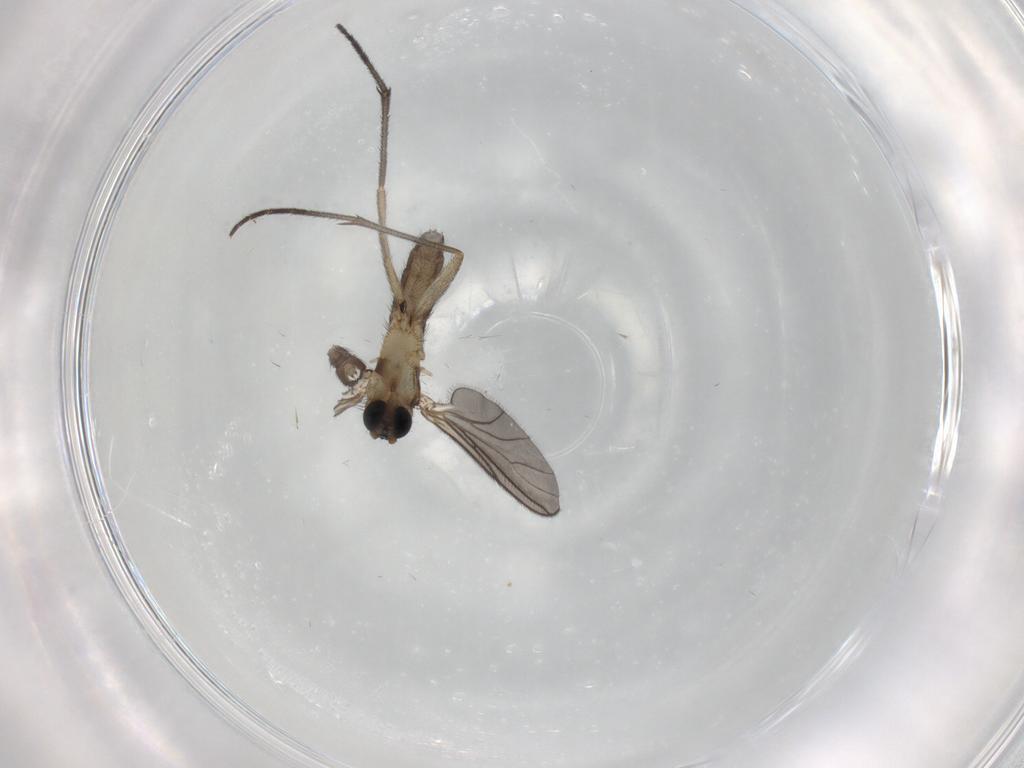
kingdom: Animalia
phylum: Arthropoda
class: Insecta
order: Diptera
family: Sciaridae
